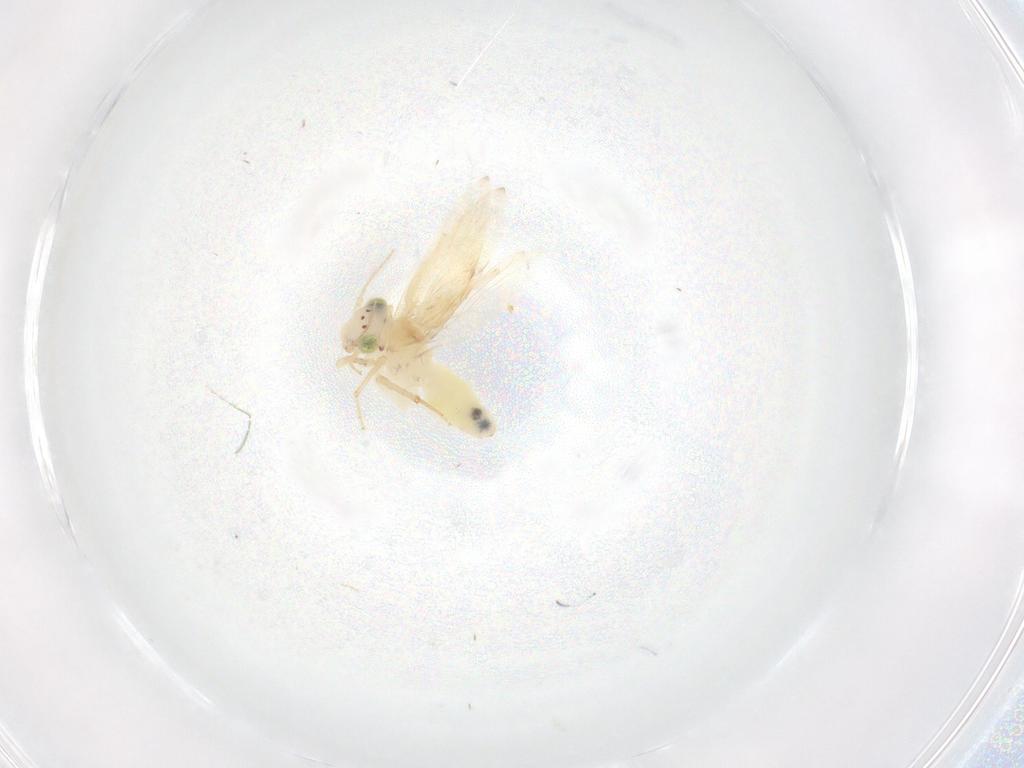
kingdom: Animalia
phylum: Arthropoda
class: Insecta
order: Psocodea
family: Lepidopsocidae
